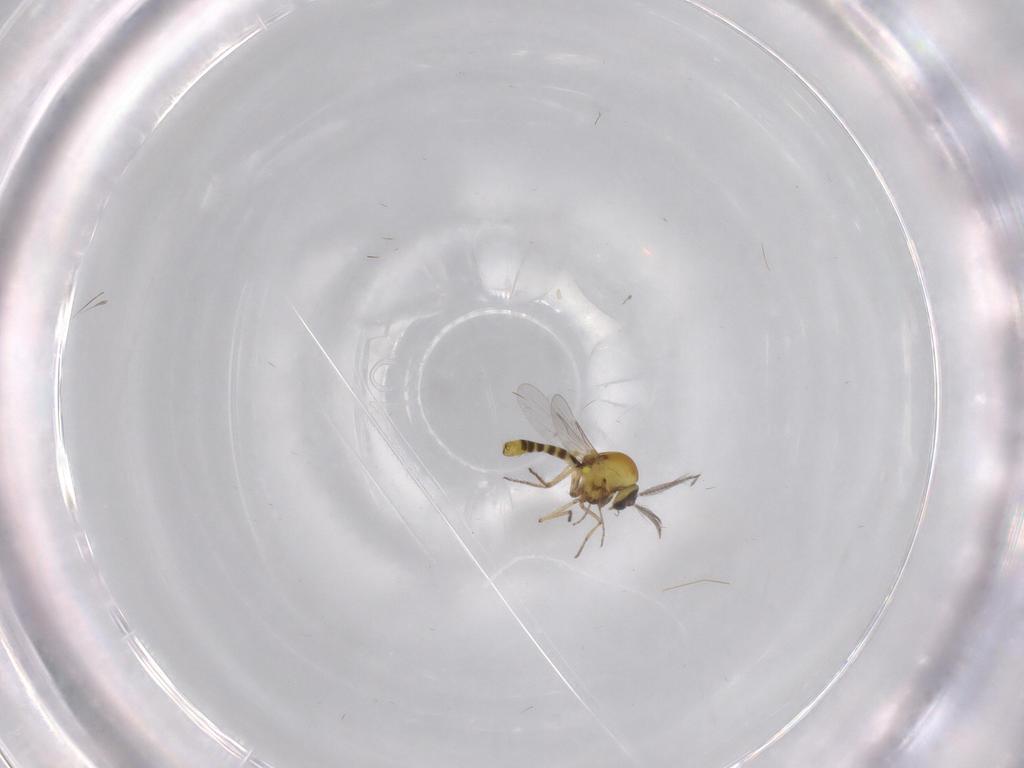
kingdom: Animalia
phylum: Arthropoda
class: Insecta
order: Diptera
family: Ceratopogonidae
